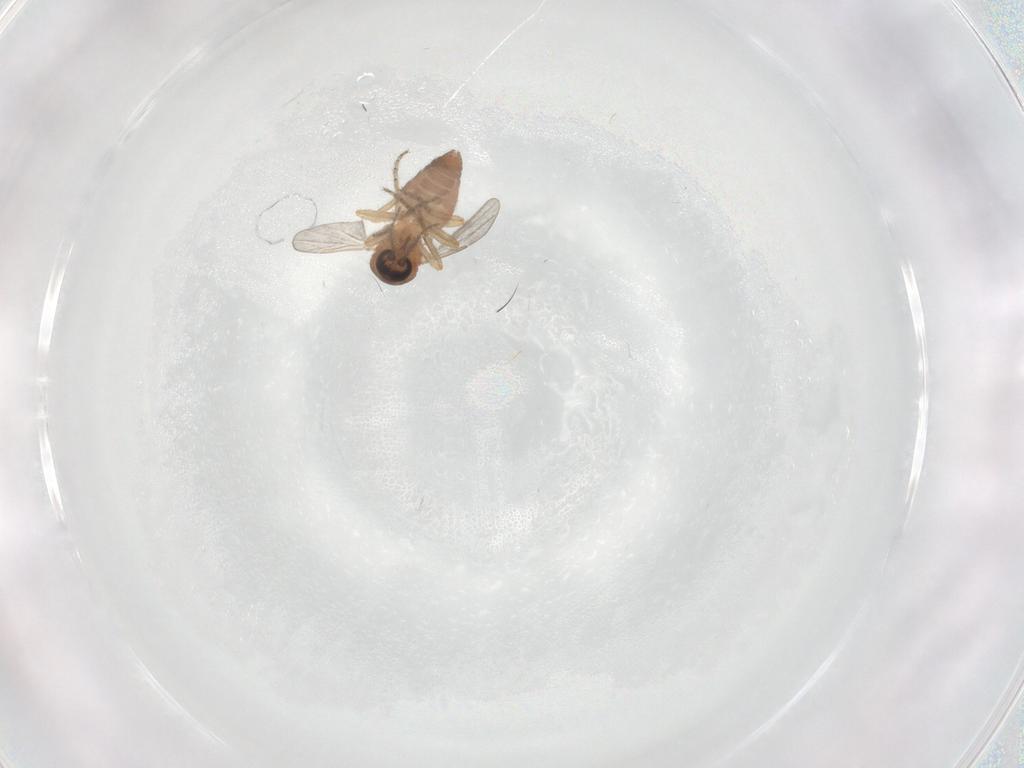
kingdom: Animalia
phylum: Arthropoda
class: Insecta
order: Diptera
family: Ceratopogonidae
